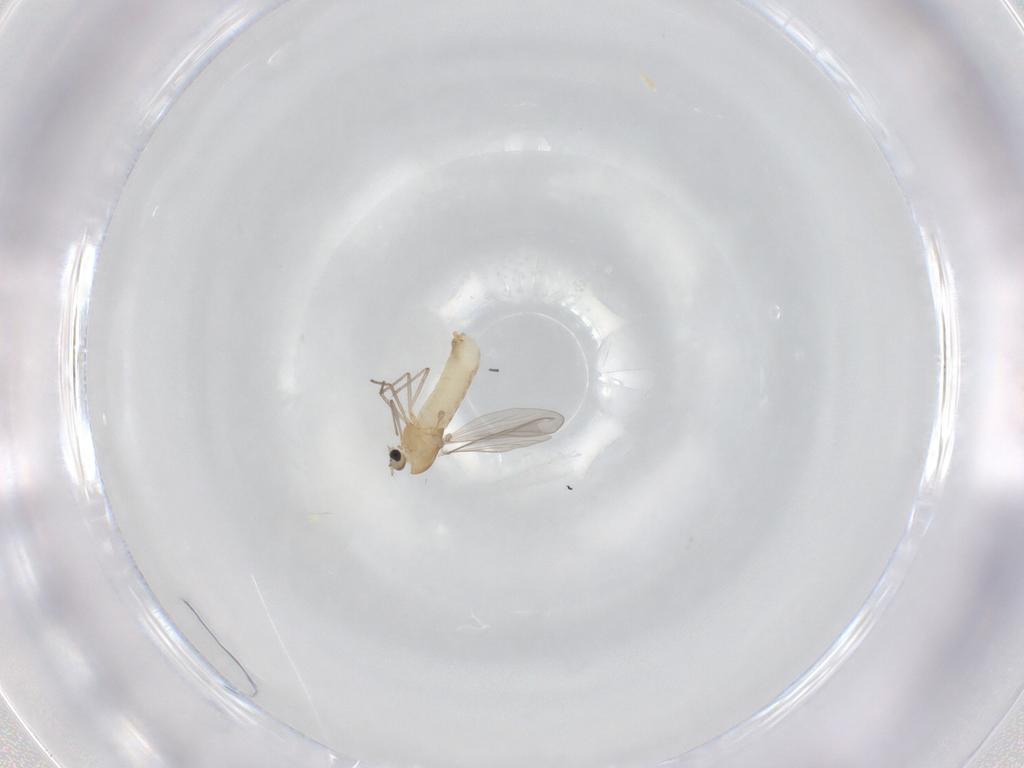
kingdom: Animalia
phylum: Arthropoda
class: Insecta
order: Diptera
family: Chironomidae
